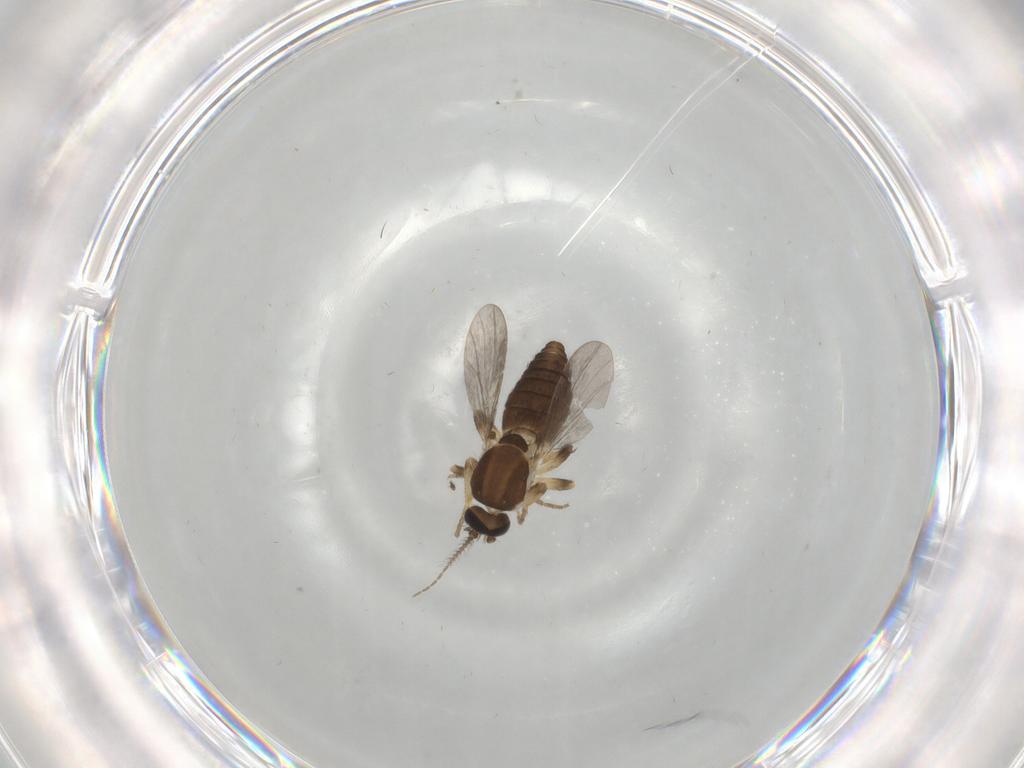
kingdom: Animalia
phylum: Arthropoda
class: Insecta
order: Diptera
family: Ceratopogonidae
